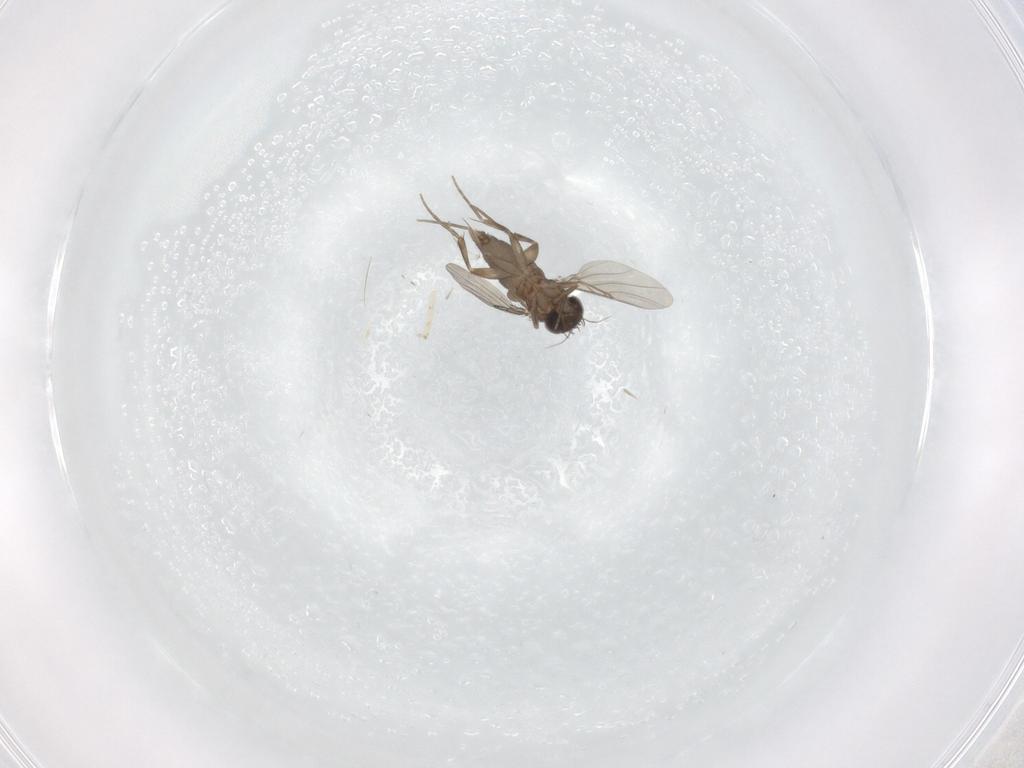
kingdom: Animalia
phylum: Arthropoda
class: Insecta
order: Diptera
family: Phoridae
